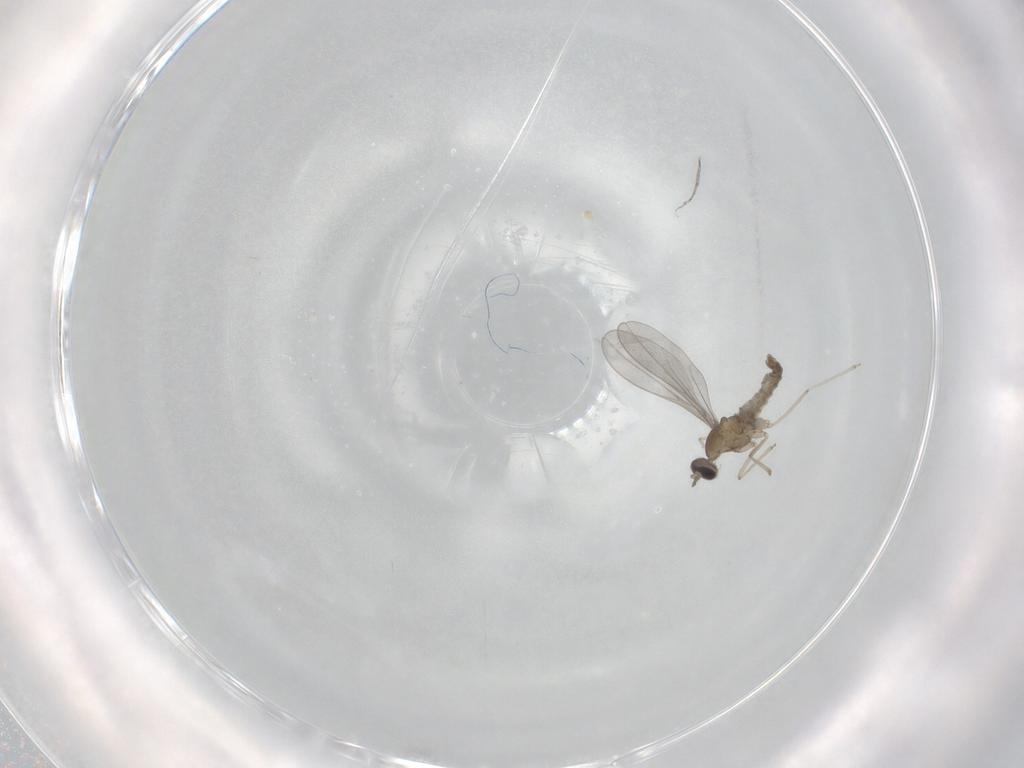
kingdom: Animalia
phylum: Arthropoda
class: Insecta
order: Diptera
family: Cecidomyiidae
